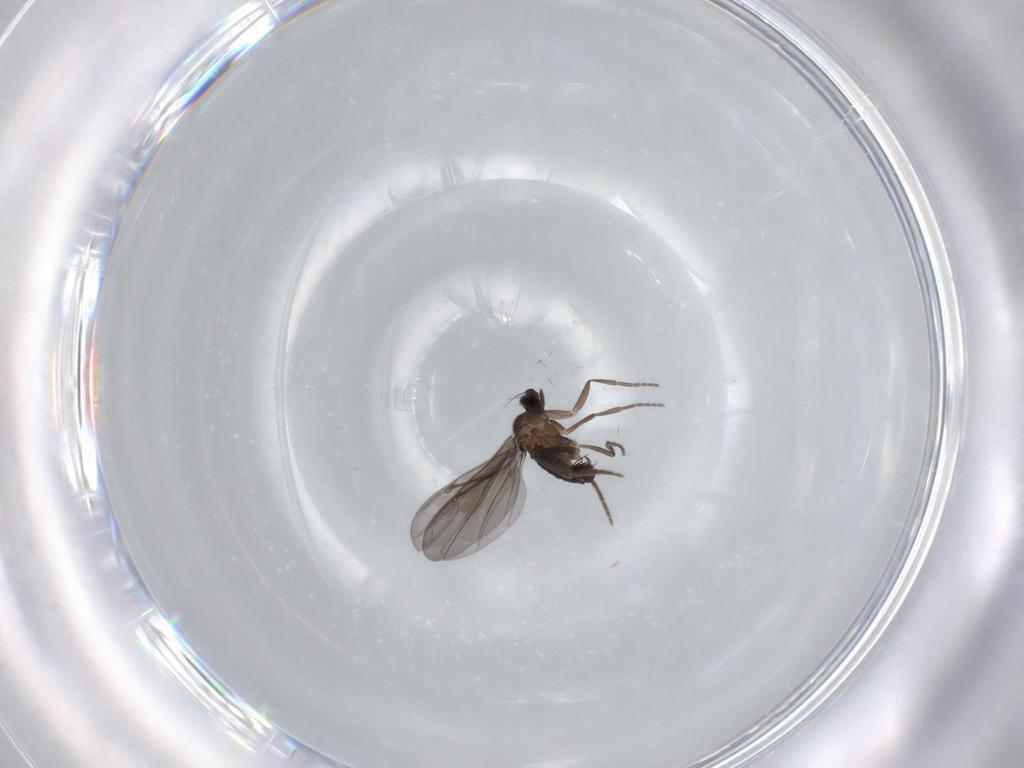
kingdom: Animalia
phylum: Arthropoda
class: Insecta
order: Diptera
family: Phoridae
